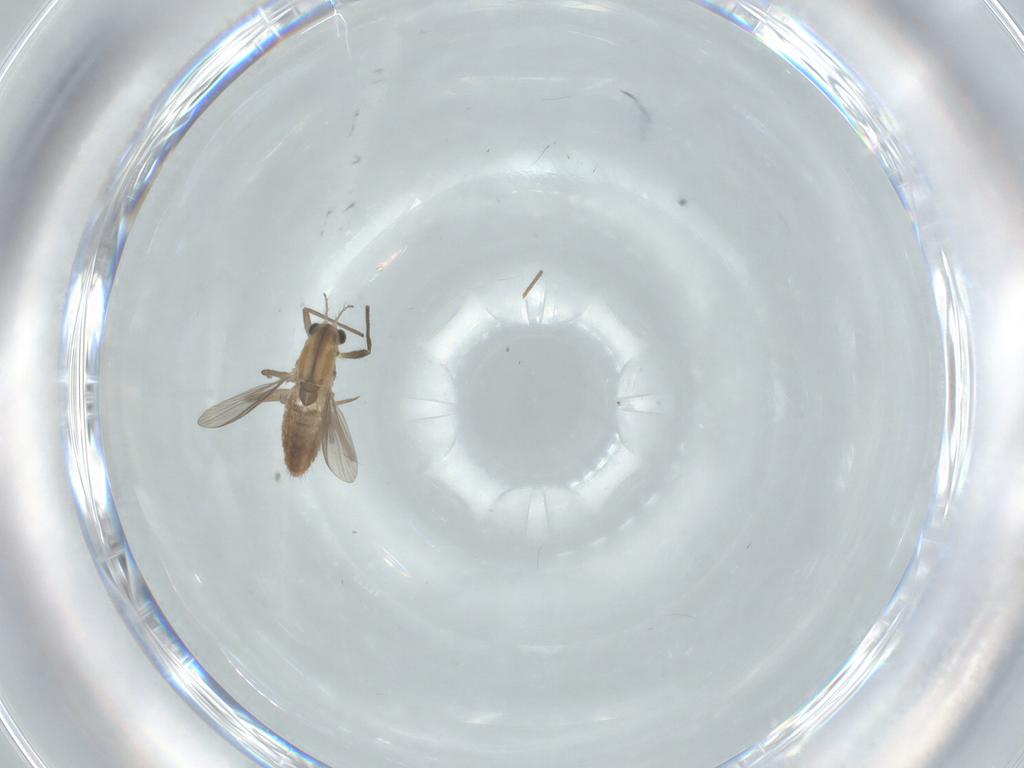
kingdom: Animalia
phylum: Arthropoda
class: Insecta
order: Diptera
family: Chironomidae
